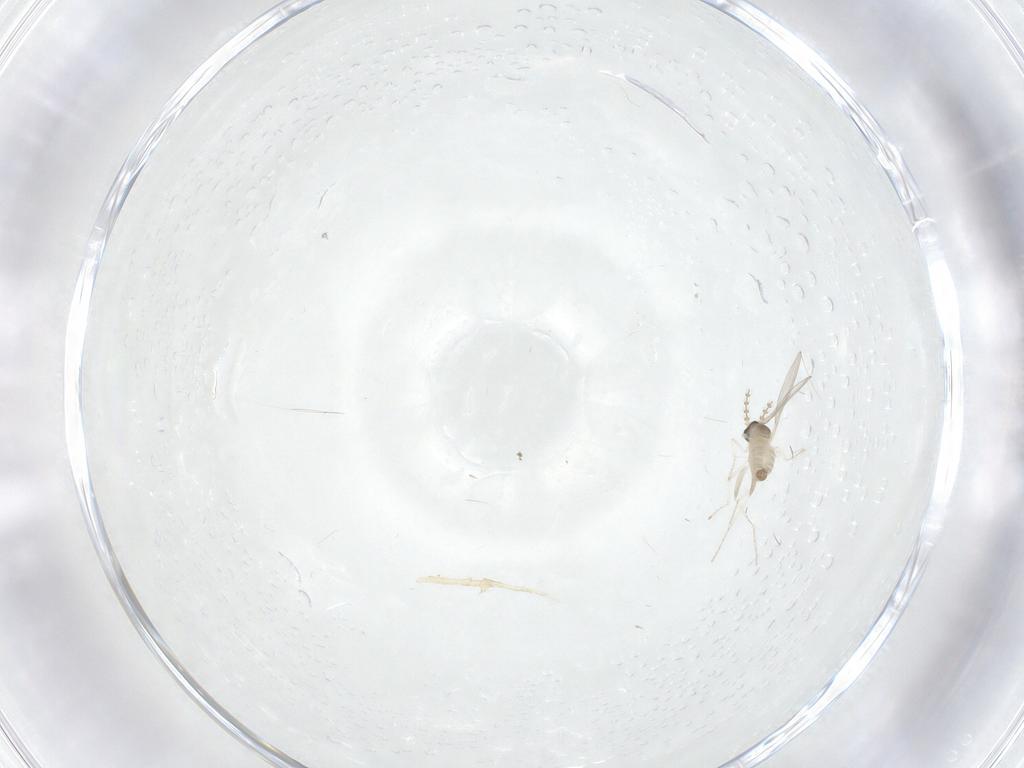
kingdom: Animalia
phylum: Arthropoda
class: Insecta
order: Diptera
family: Cecidomyiidae
